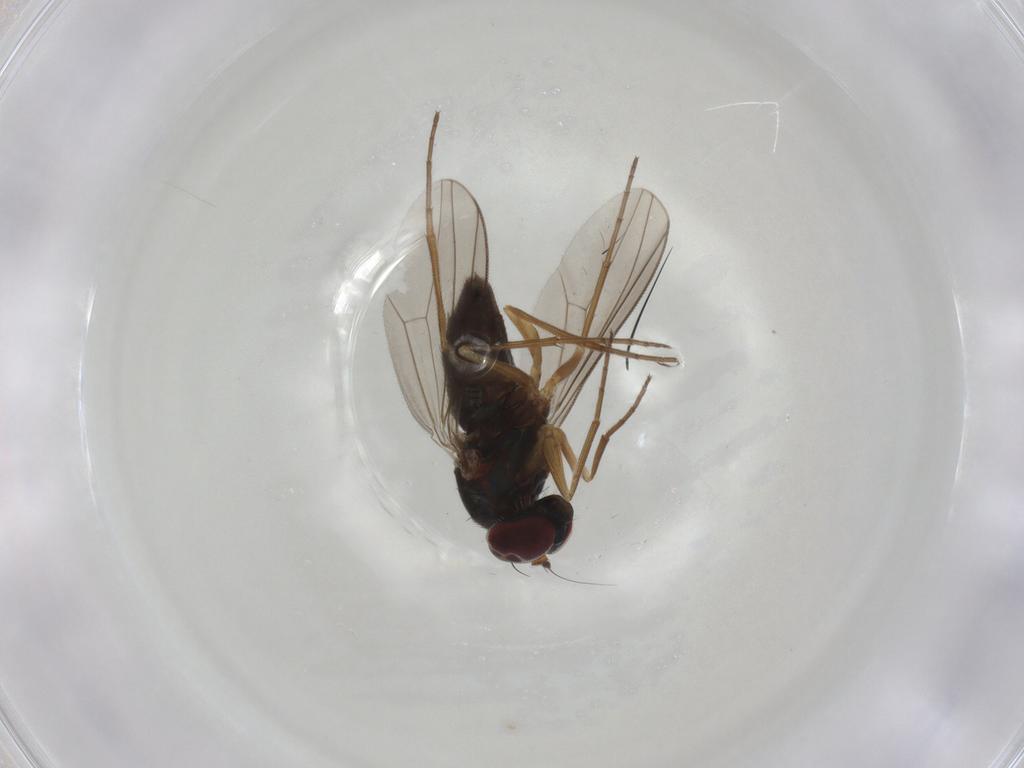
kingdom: Animalia
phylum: Arthropoda
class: Insecta
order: Diptera
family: Dolichopodidae
